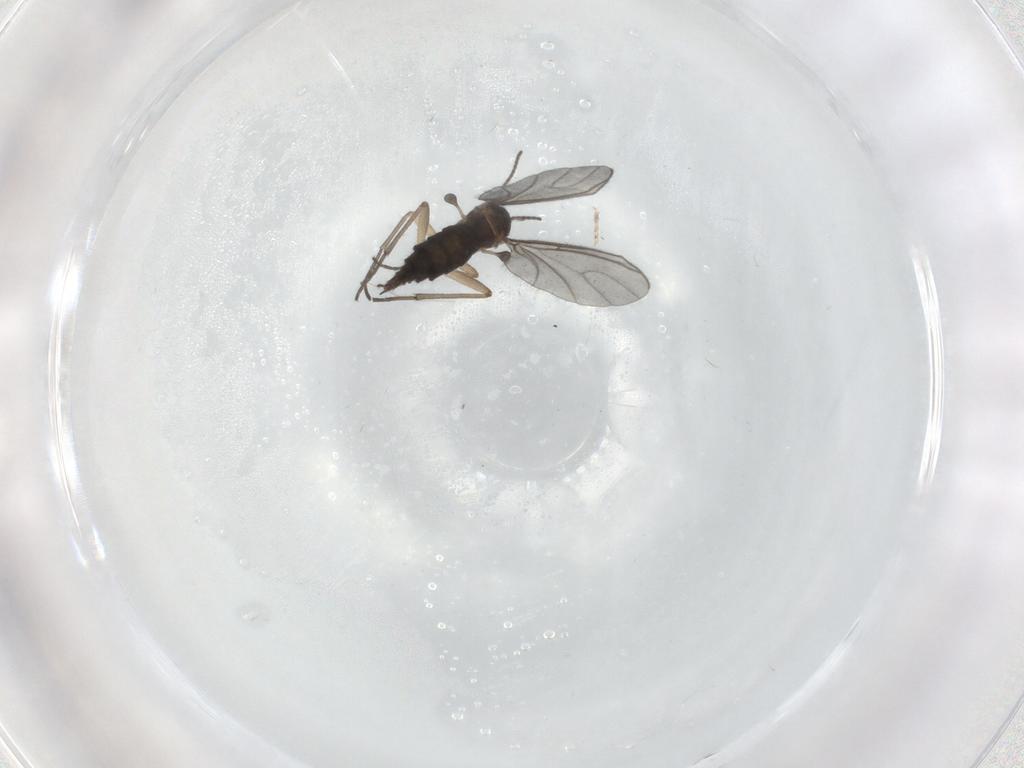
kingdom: Animalia
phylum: Arthropoda
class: Insecta
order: Diptera
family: Sciaridae
